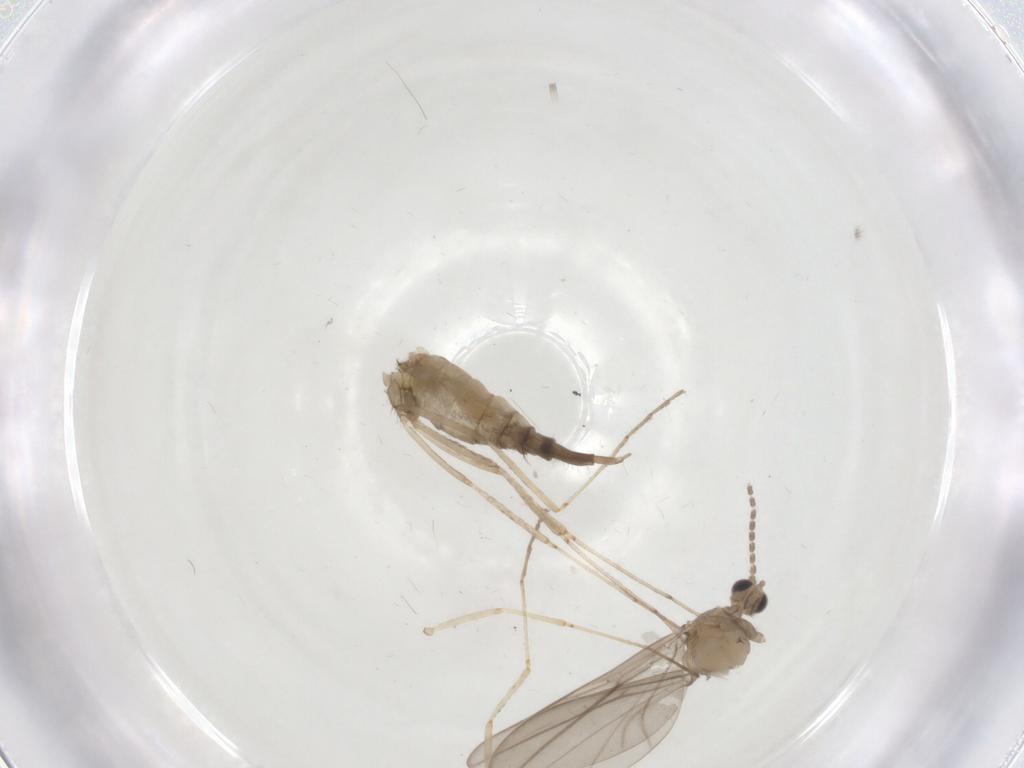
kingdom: Animalia
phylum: Arthropoda
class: Insecta
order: Diptera
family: Cecidomyiidae
